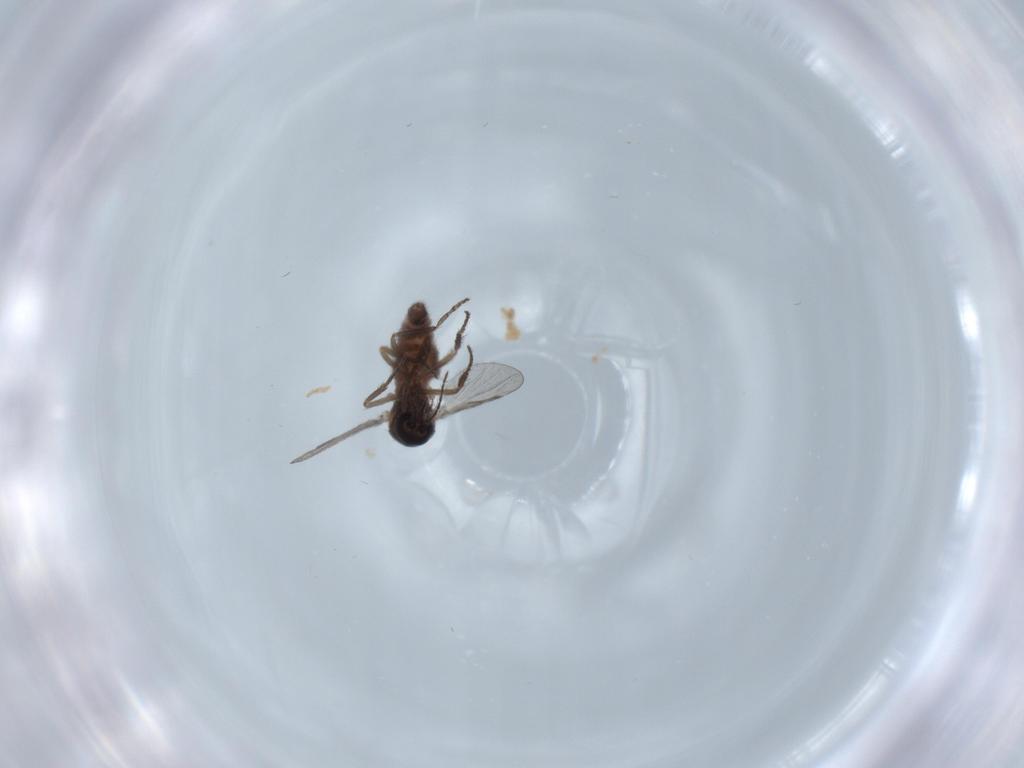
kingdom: Animalia
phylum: Arthropoda
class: Insecta
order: Diptera
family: Phoridae
